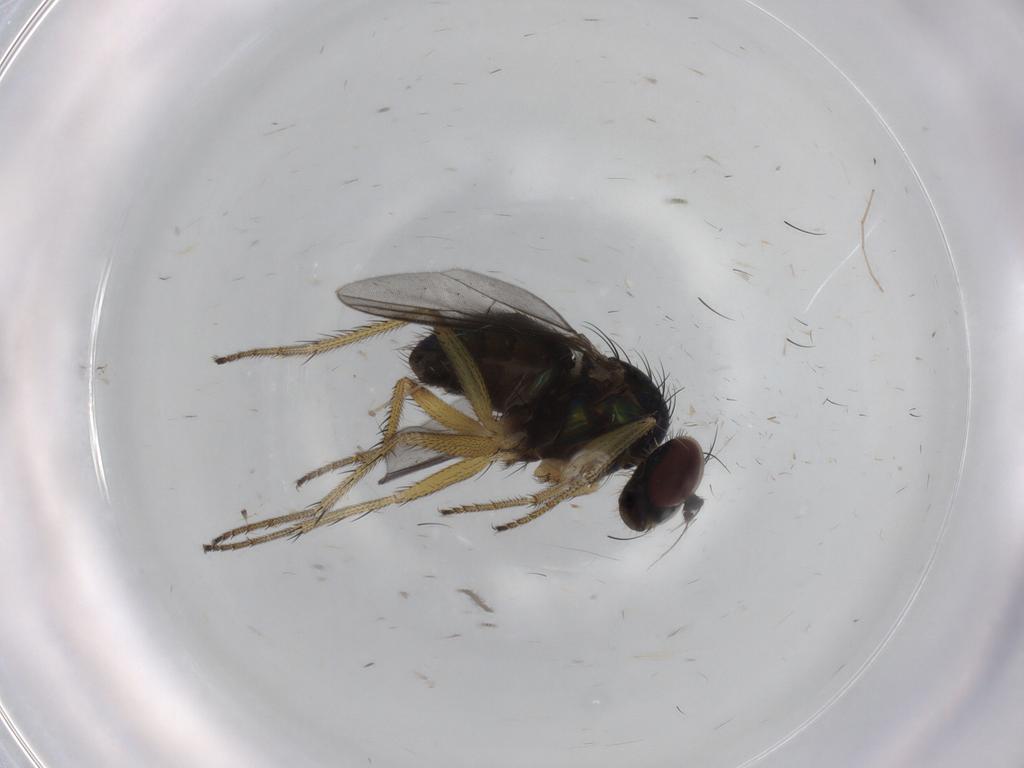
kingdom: Animalia
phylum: Arthropoda
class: Insecta
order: Diptera
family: Dolichopodidae
